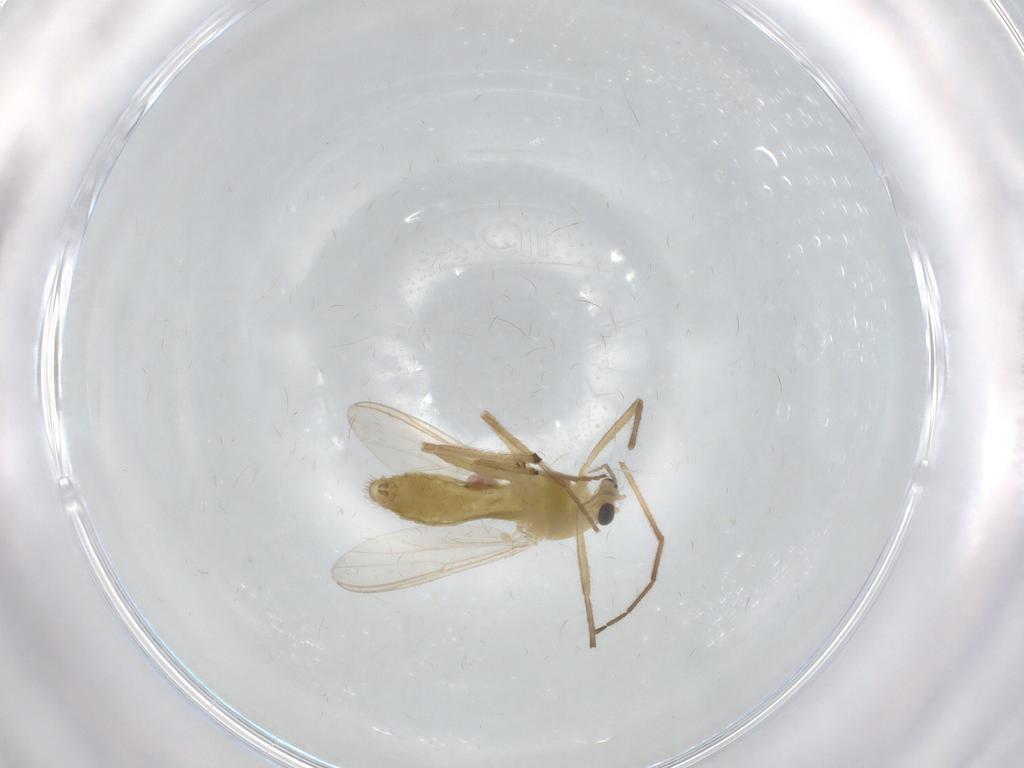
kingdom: Animalia
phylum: Arthropoda
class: Insecta
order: Diptera
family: Chironomidae
